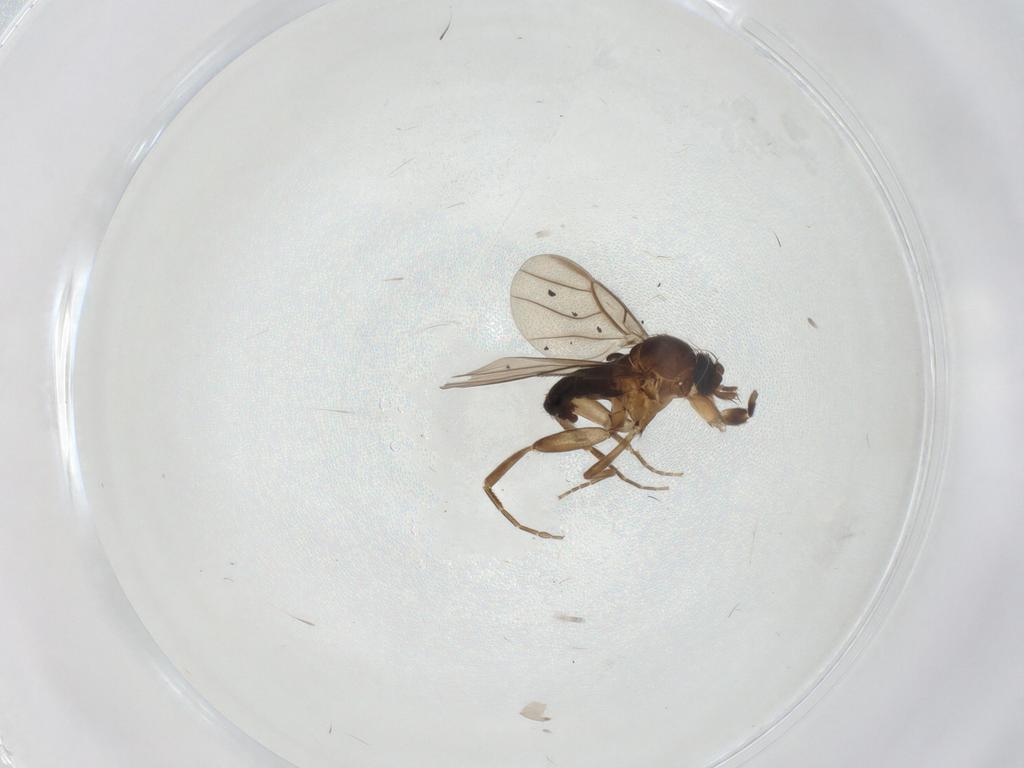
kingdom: Animalia
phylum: Arthropoda
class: Insecta
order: Diptera
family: Phoridae
